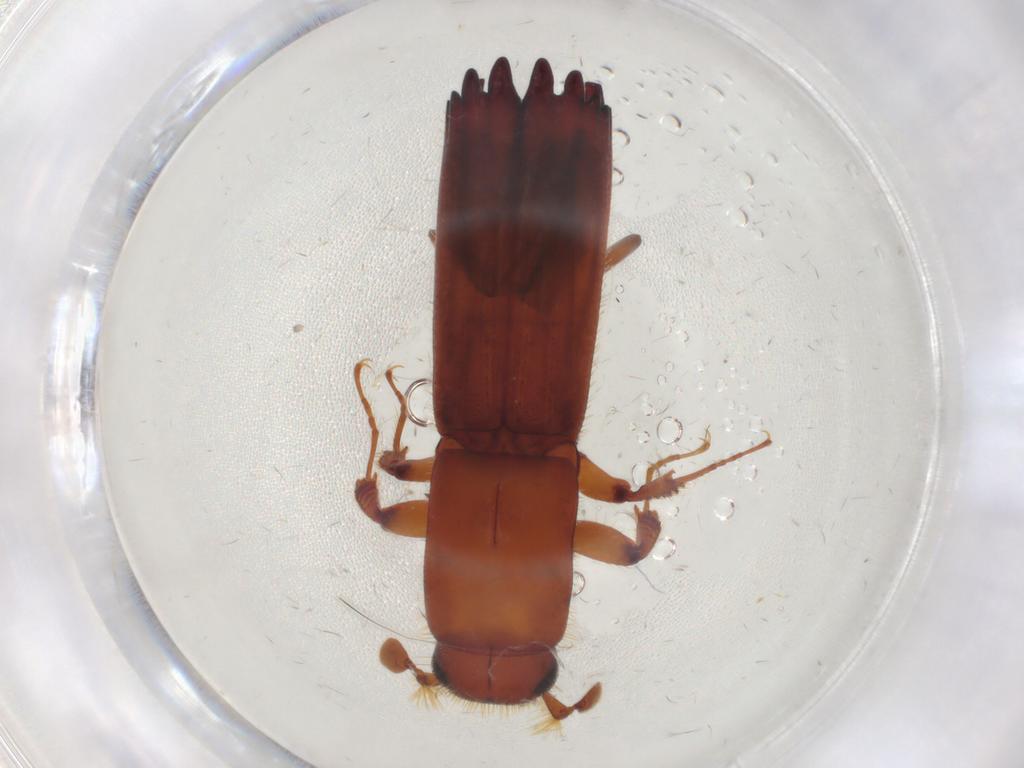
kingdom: Animalia
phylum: Arthropoda
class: Insecta
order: Coleoptera
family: Curculionidae
